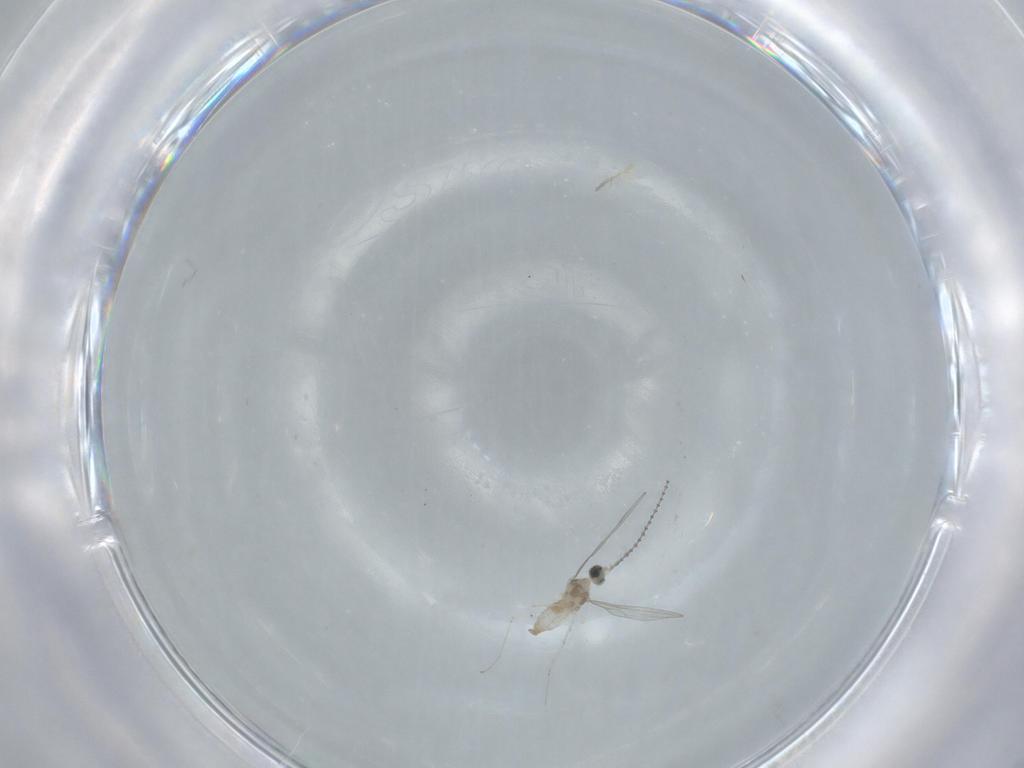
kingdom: Animalia
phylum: Arthropoda
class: Insecta
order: Diptera
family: Cecidomyiidae
